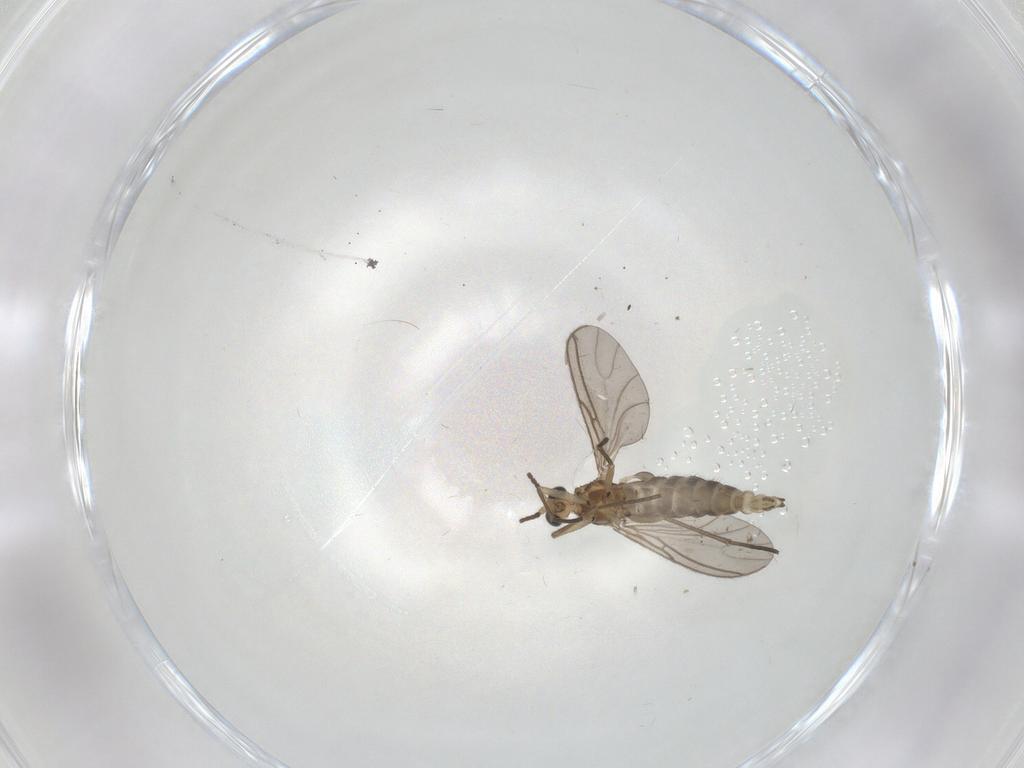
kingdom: Animalia
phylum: Arthropoda
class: Insecta
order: Diptera
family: Sciaridae
